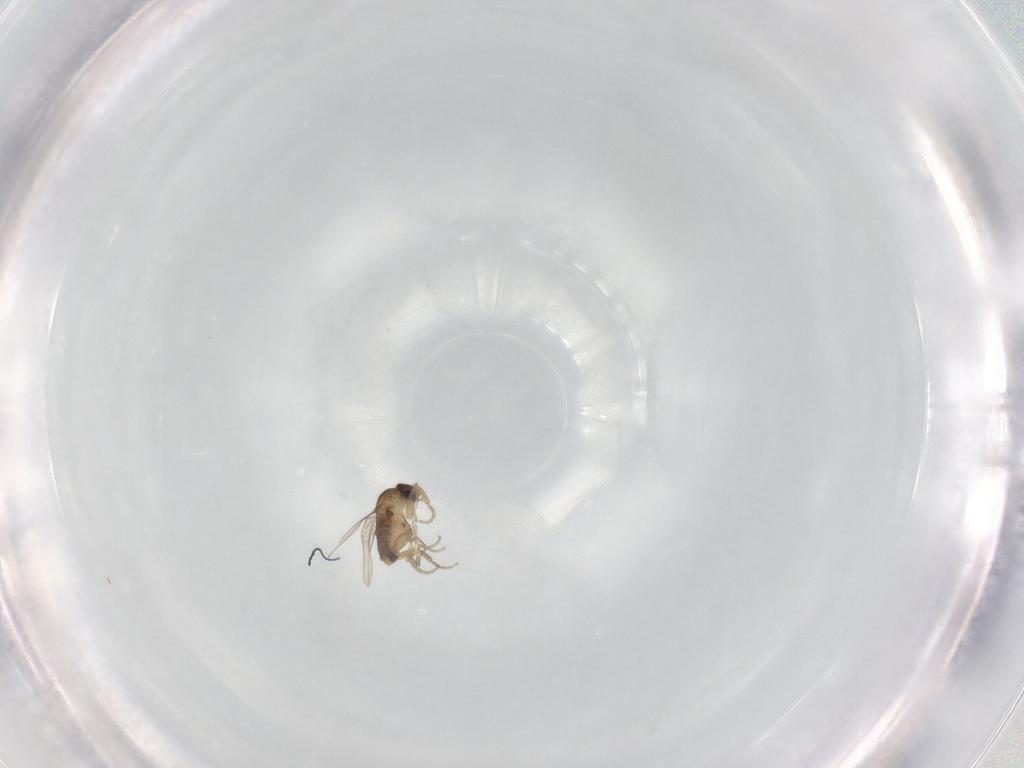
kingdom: Animalia
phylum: Arthropoda
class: Insecta
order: Diptera
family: Phoridae
